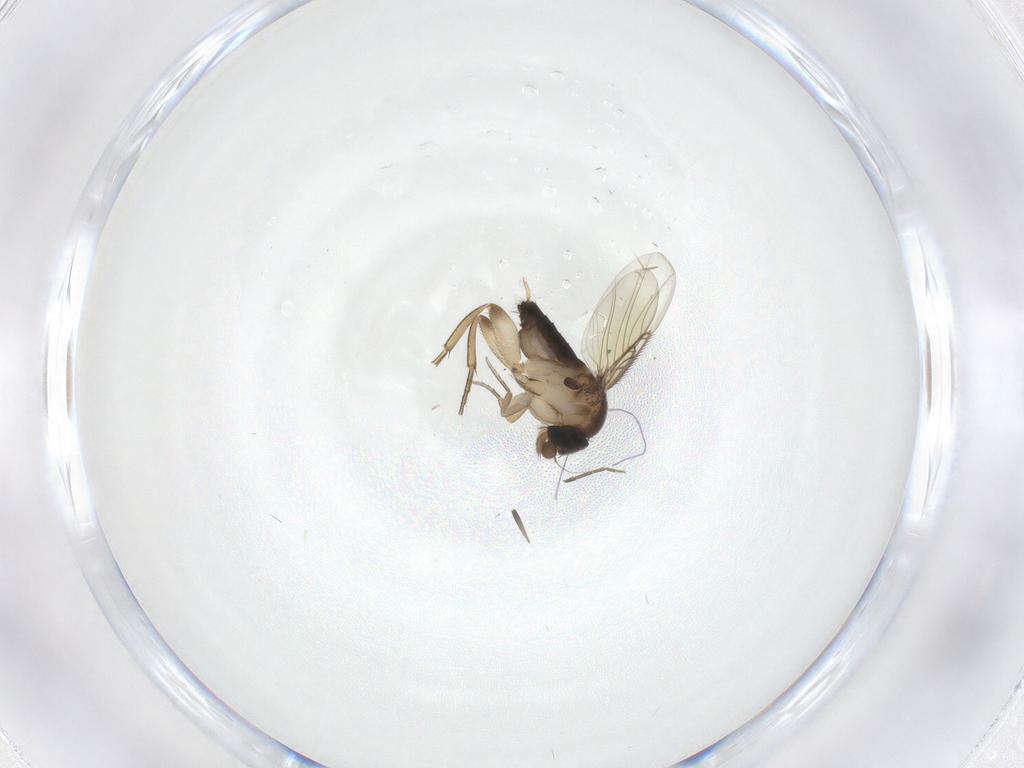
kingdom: Animalia
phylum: Arthropoda
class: Insecta
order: Diptera
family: Phoridae
